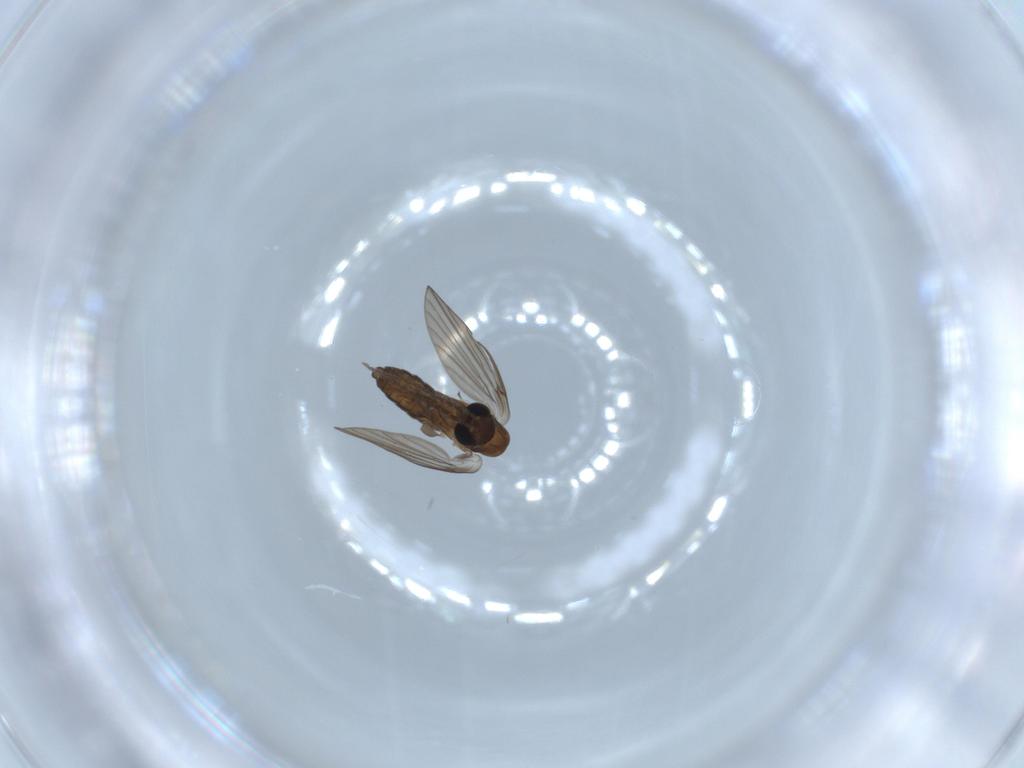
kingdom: Animalia
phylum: Arthropoda
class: Insecta
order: Diptera
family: Psychodidae
